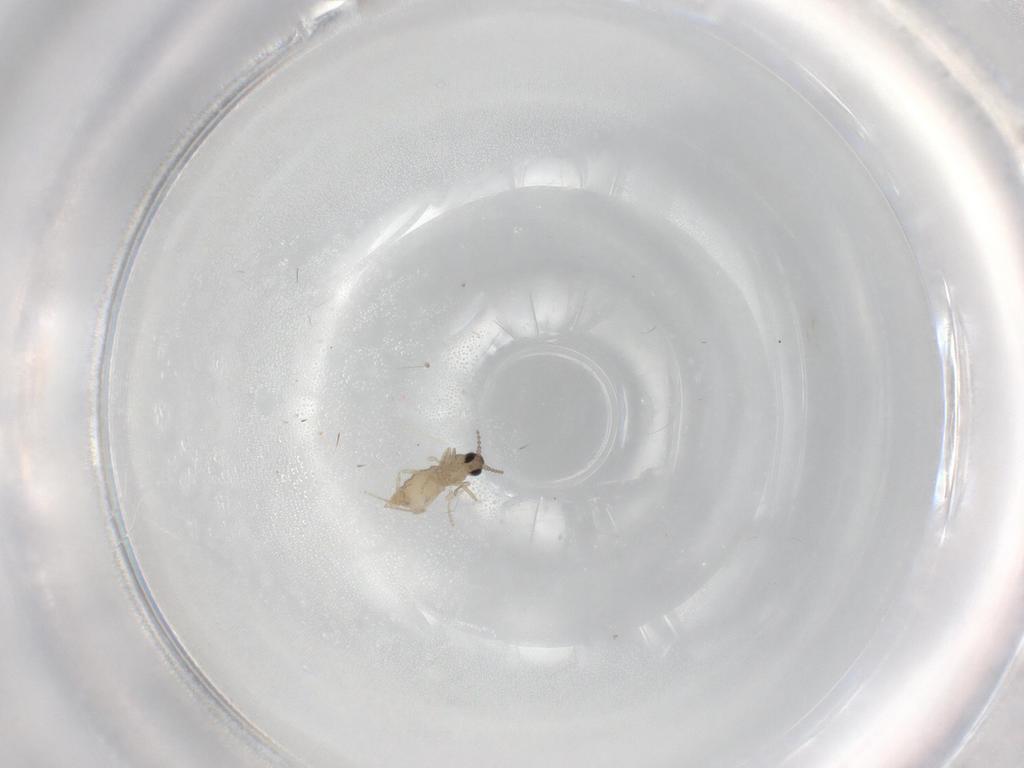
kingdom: Animalia
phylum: Arthropoda
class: Insecta
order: Diptera
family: Cecidomyiidae
